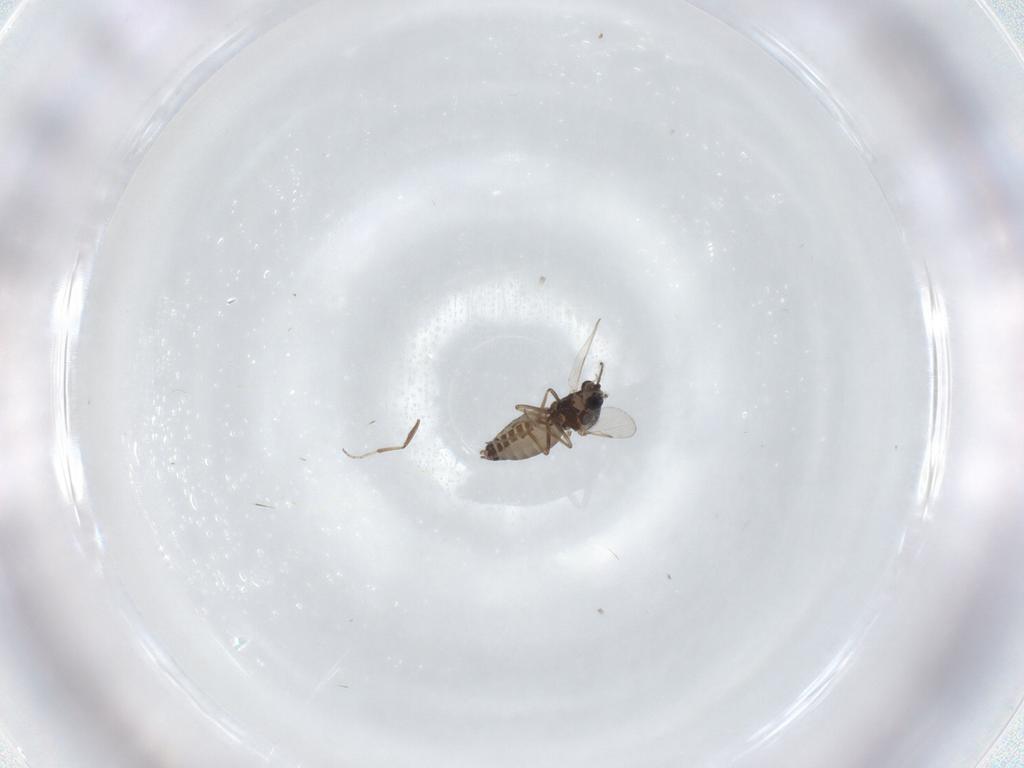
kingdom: Animalia
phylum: Arthropoda
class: Insecta
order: Diptera
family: Ceratopogonidae
